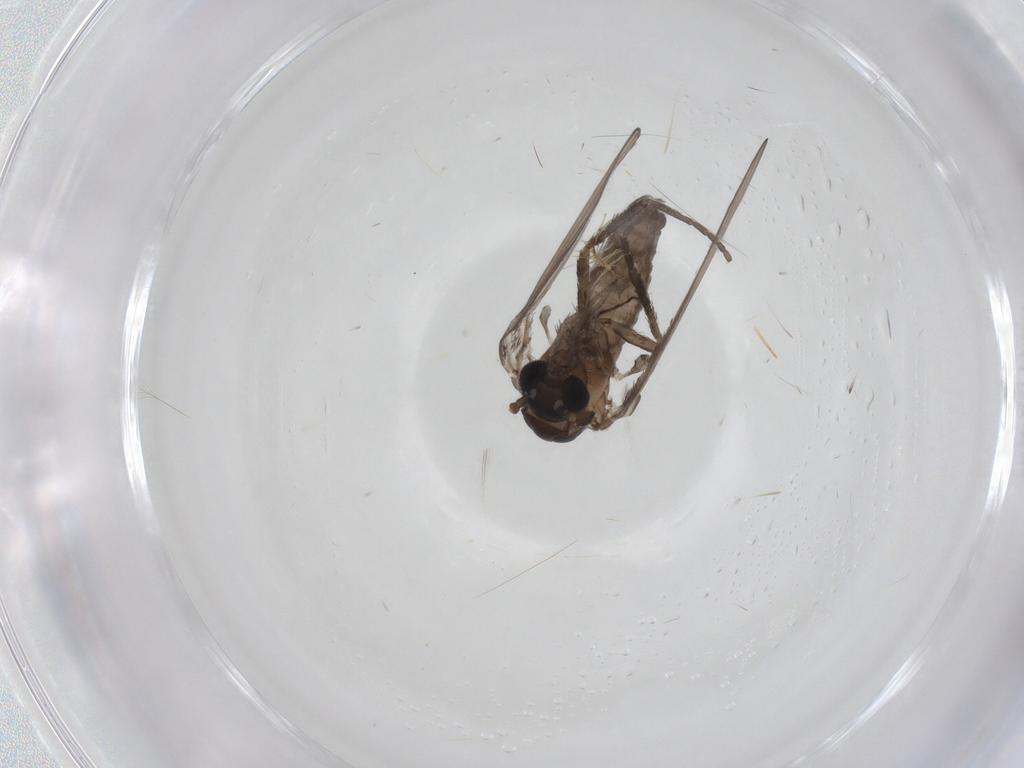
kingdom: Animalia
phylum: Arthropoda
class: Insecta
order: Diptera
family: Psychodidae
